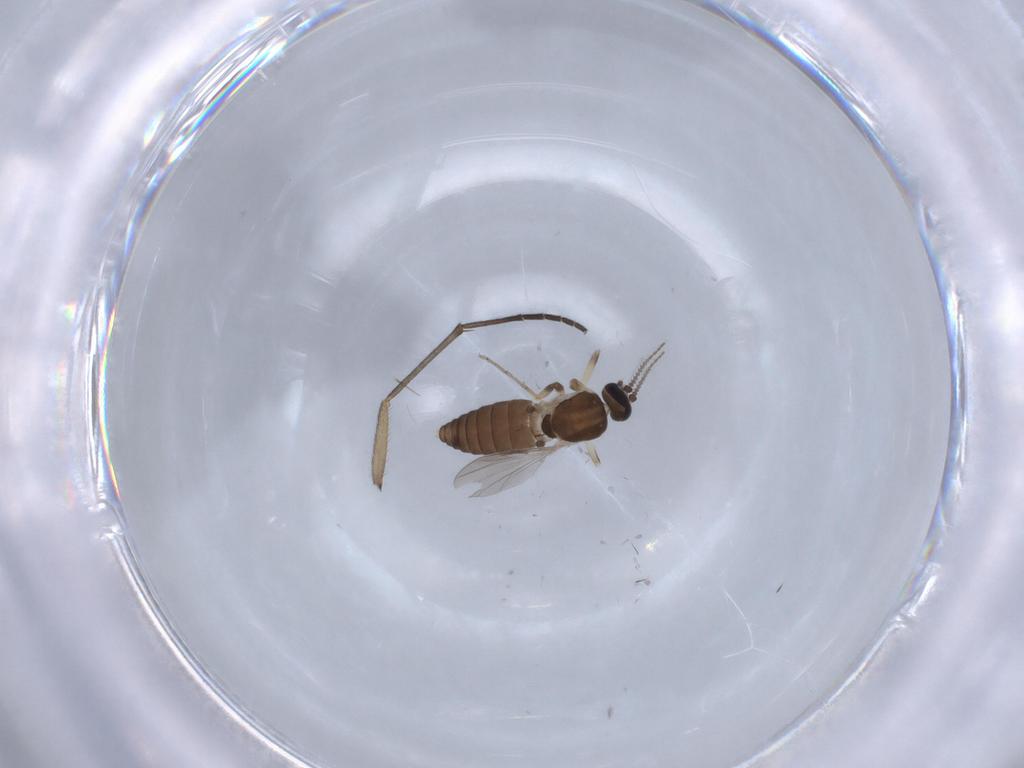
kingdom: Animalia
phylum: Arthropoda
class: Insecta
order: Diptera
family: Ceratopogonidae
